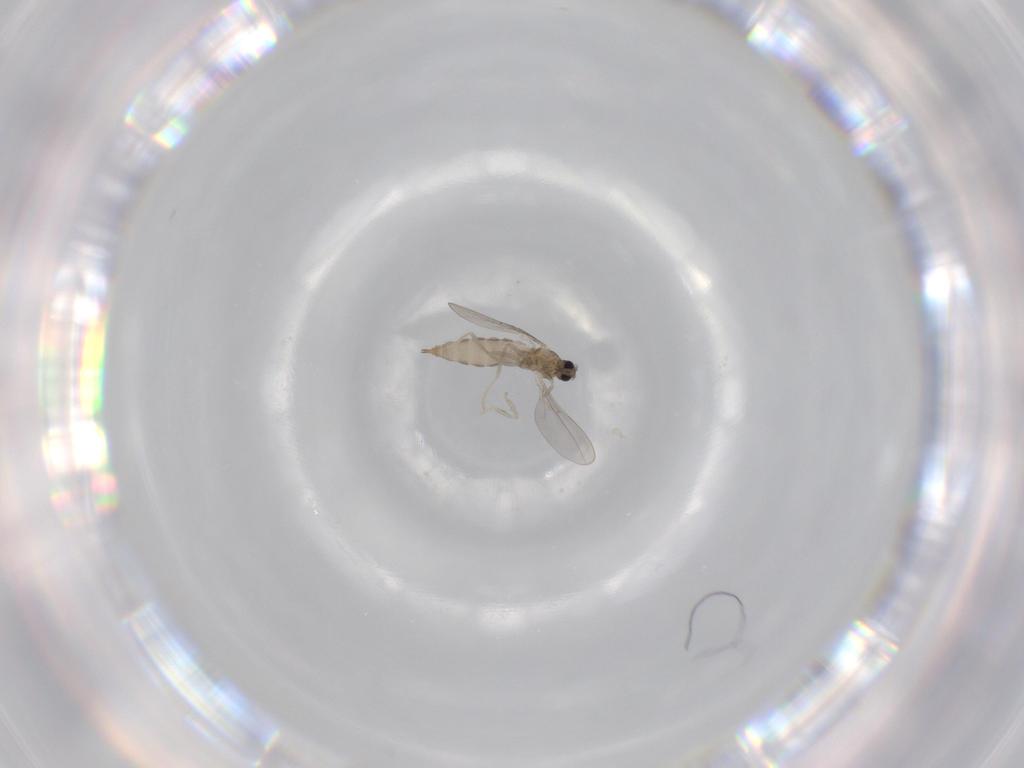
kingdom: Animalia
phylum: Arthropoda
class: Insecta
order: Diptera
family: Cecidomyiidae
